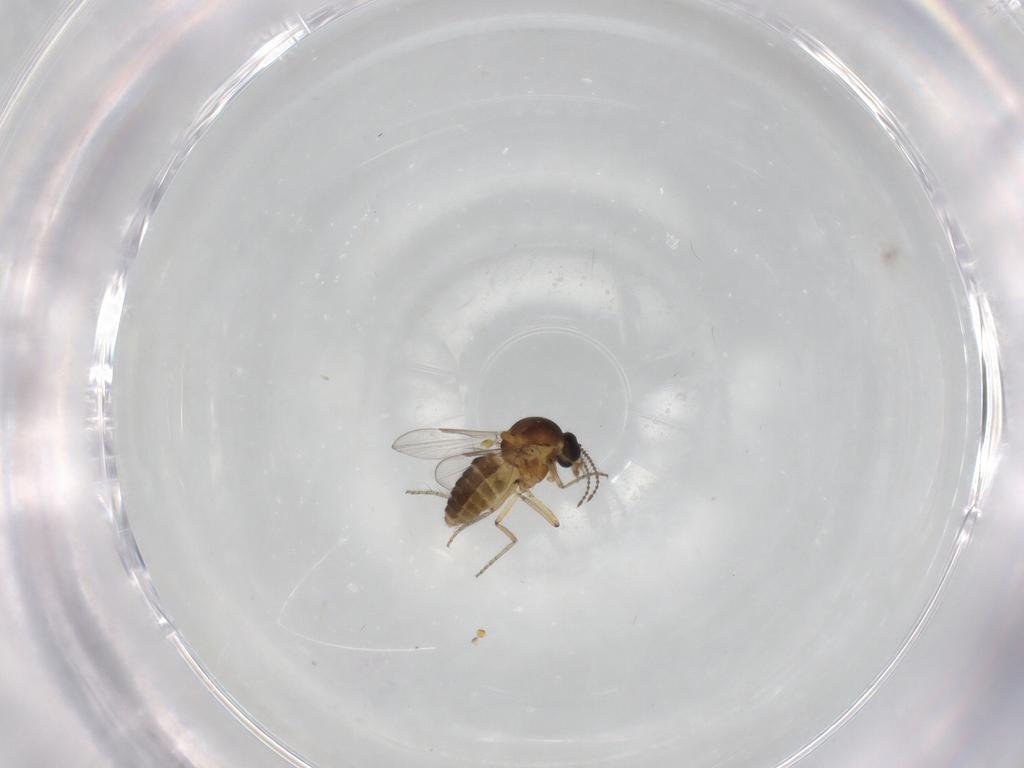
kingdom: Animalia
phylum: Arthropoda
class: Insecta
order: Diptera
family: Ceratopogonidae
